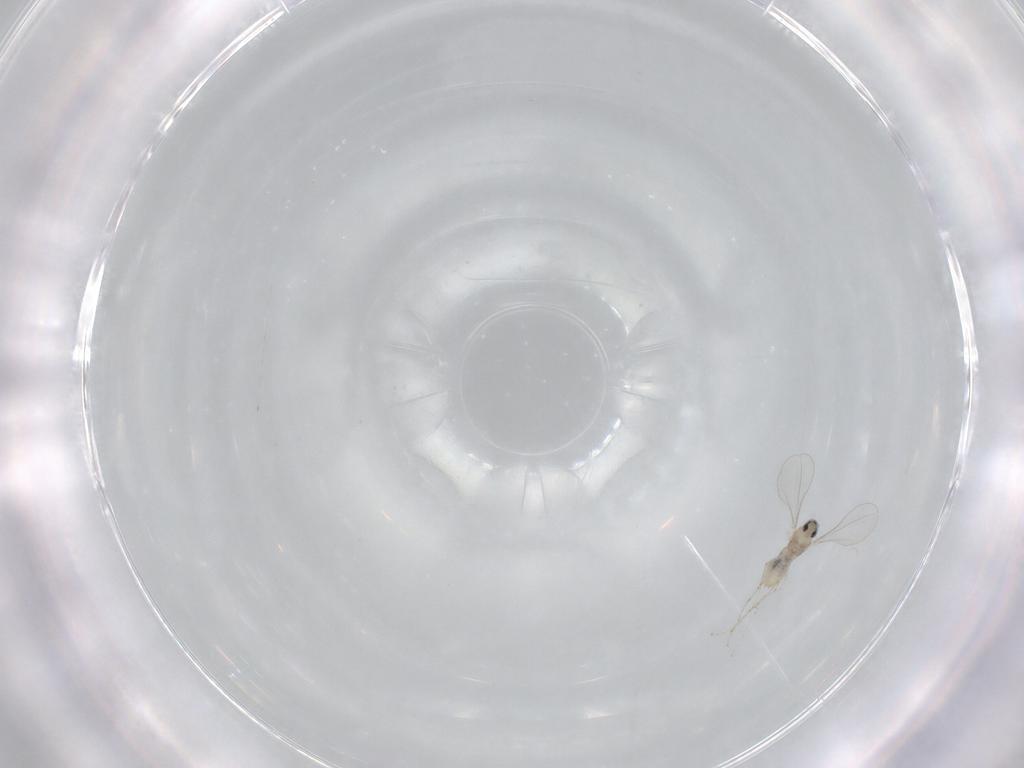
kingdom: Animalia
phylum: Arthropoda
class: Insecta
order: Diptera
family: Cecidomyiidae
